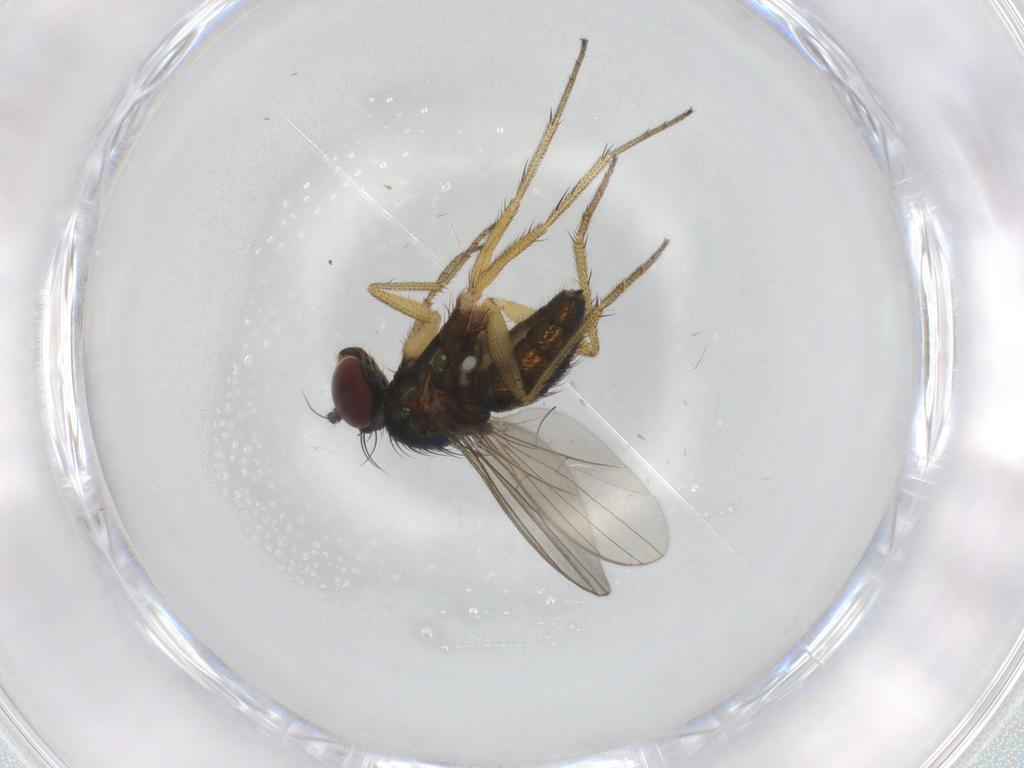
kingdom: Animalia
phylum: Arthropoda
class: Insecta
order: Diptera
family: Dolichopodidae
